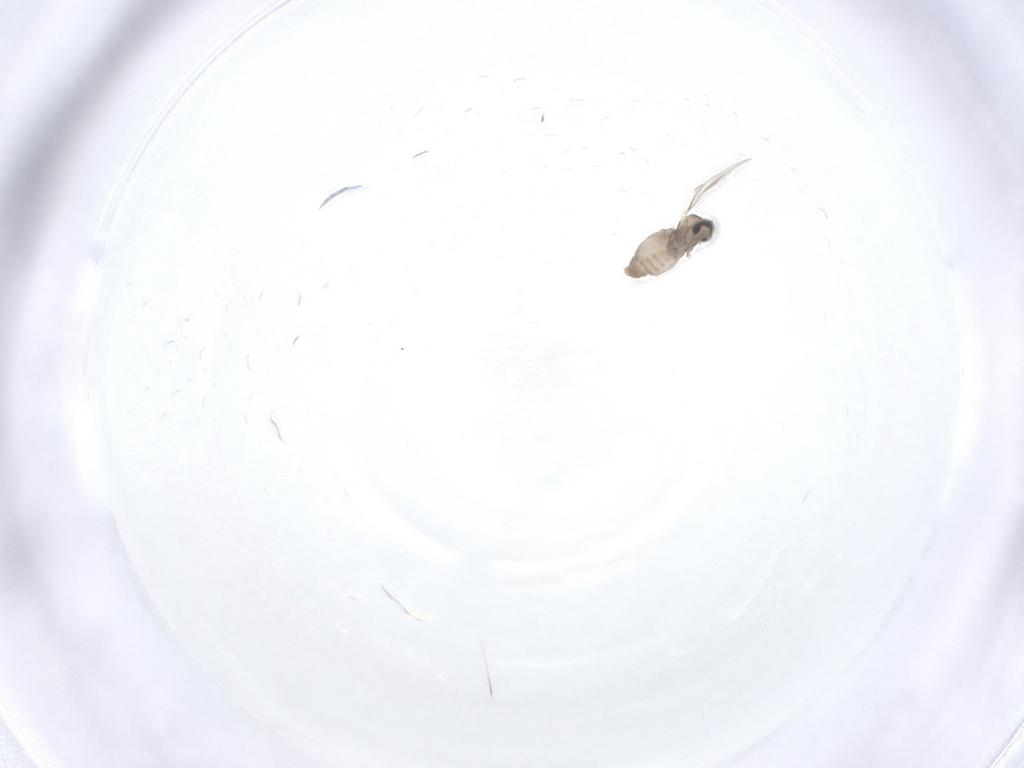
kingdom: Animalia
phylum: Arthropoda
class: Insecta
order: Diptera
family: Cecidomyiidae
